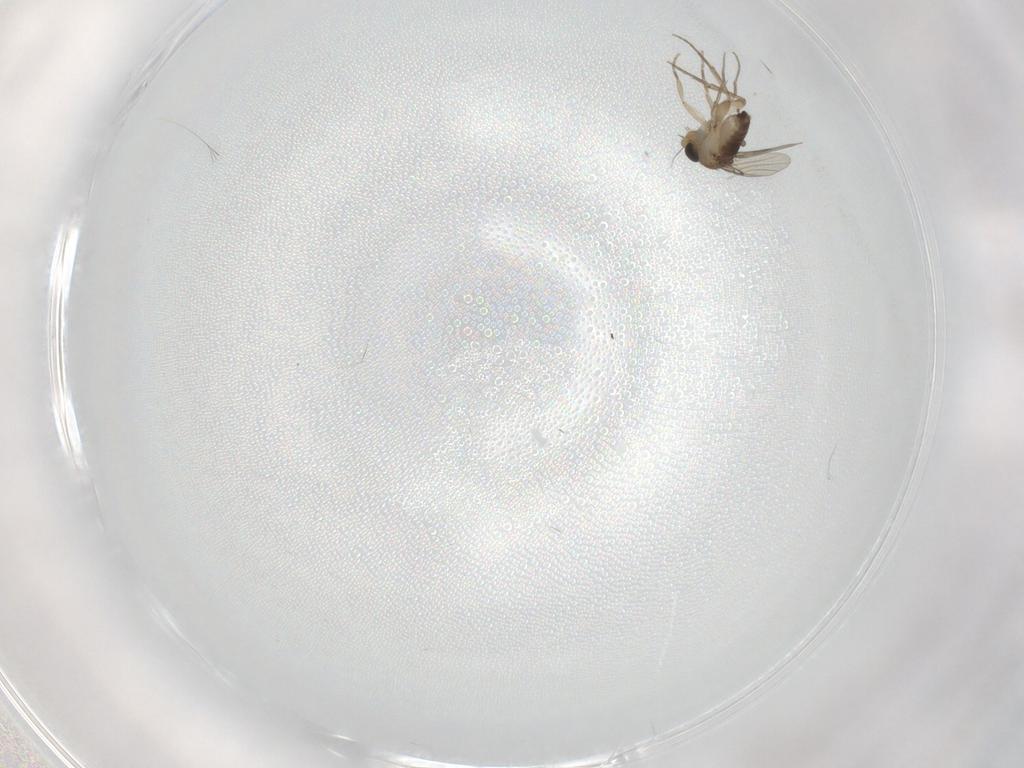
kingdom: Animalia
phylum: Arthropoda
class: Insecta
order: Diptera
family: Phoridae
